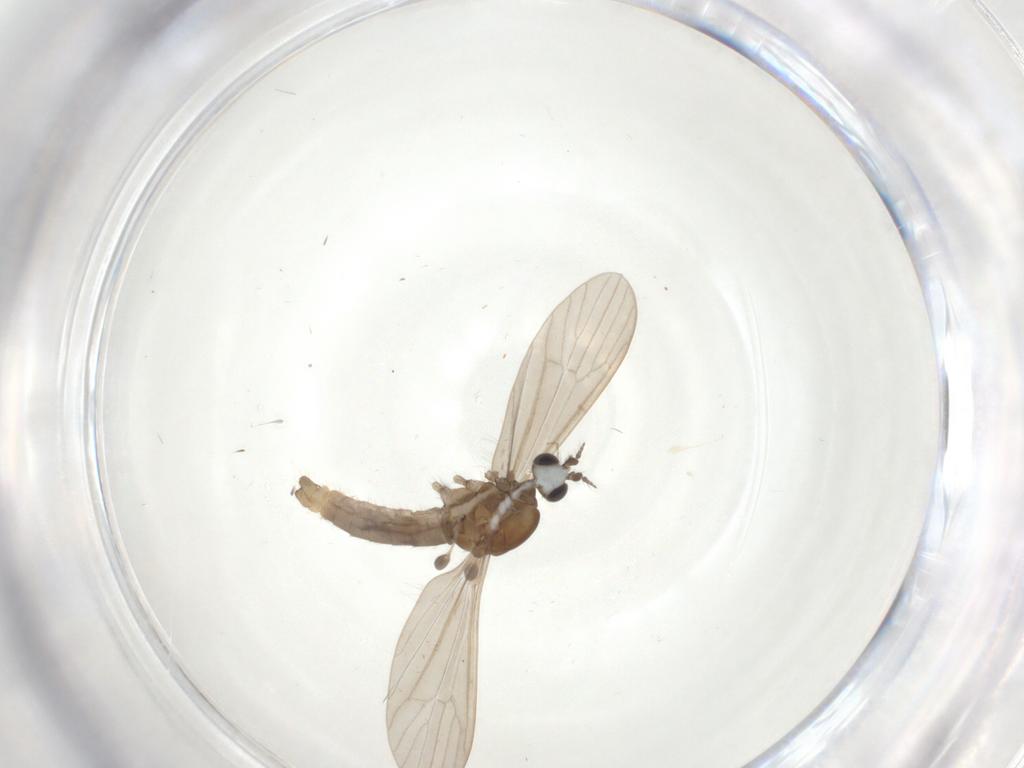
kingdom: Animalia
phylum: Arthropoda
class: Insecta
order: Diptera
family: Limoniidae
